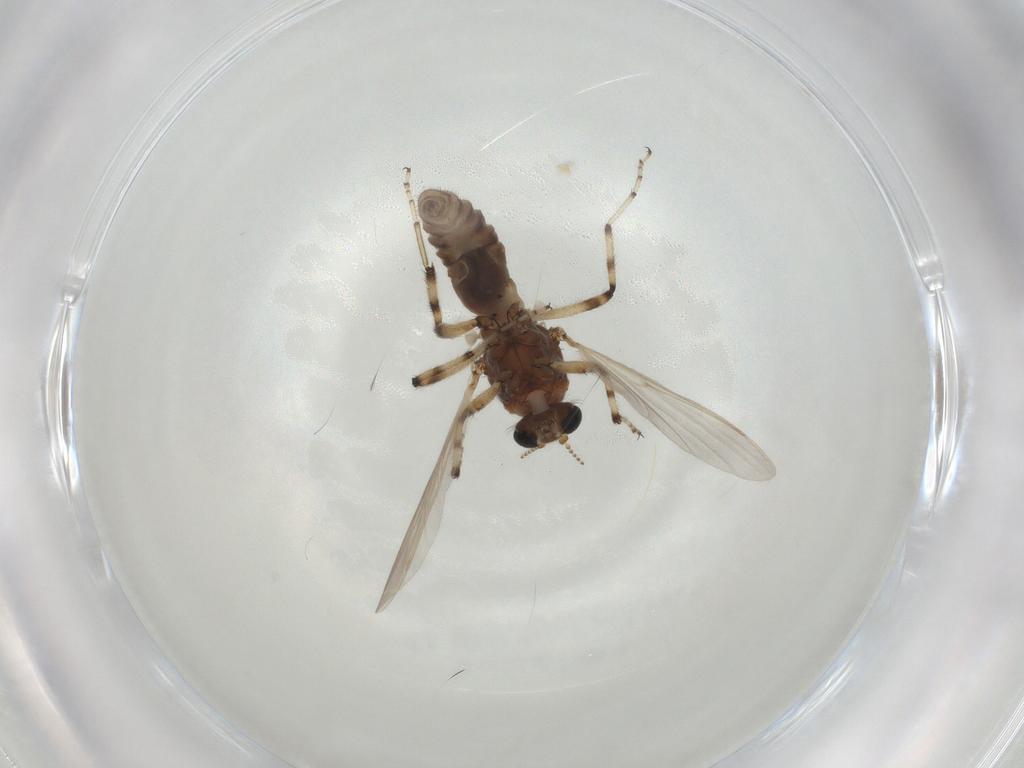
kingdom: Animalia
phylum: Arthropoda
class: Insecta
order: Diptera
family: Ceratopogonidae
